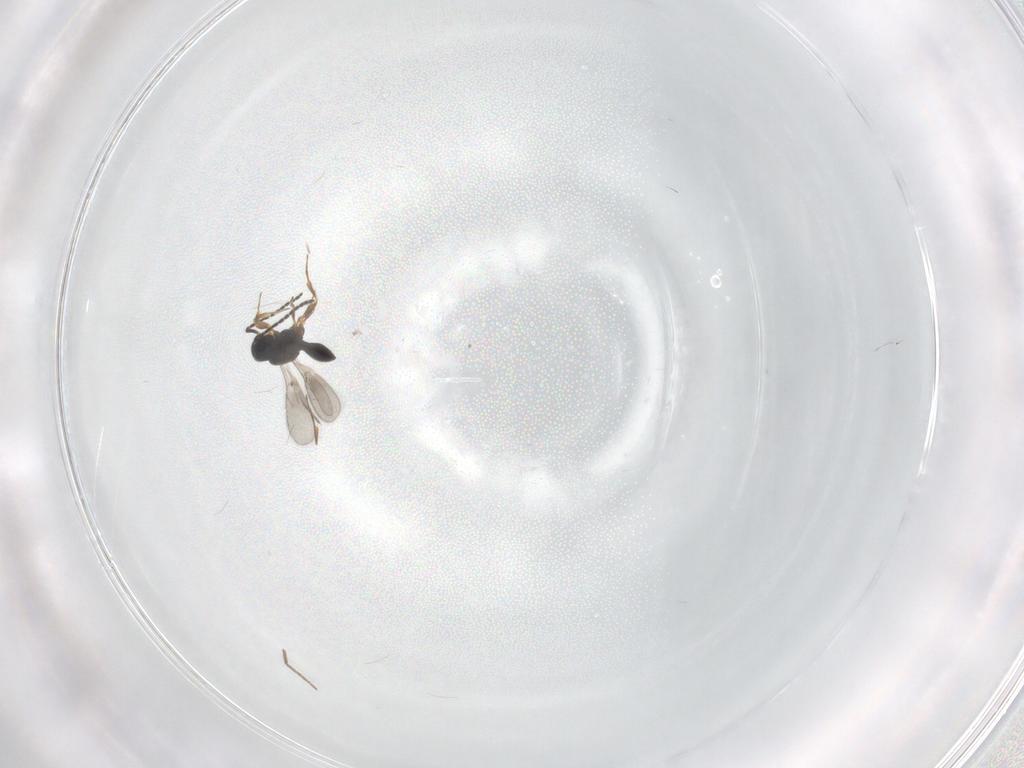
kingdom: Animalia
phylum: Arthropoda
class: Insecta
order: Hymenoptera
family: Scelionidae
